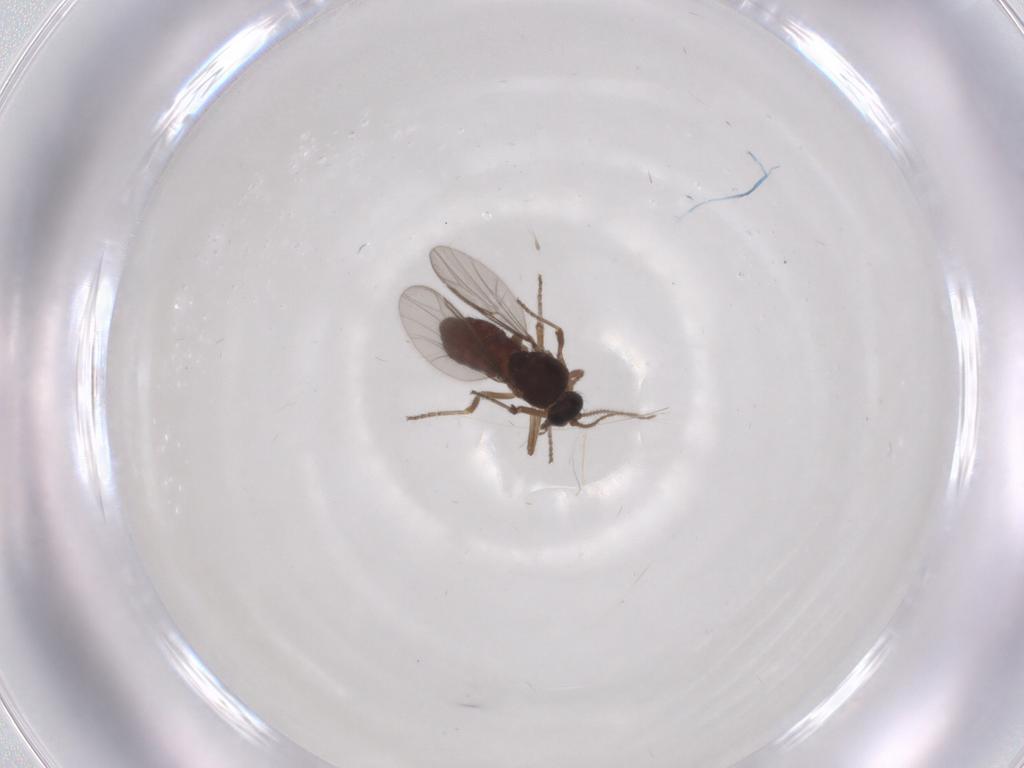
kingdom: Animalia
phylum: Arthropoda
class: Insecta
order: Diptera
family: Ceratopogonidae
